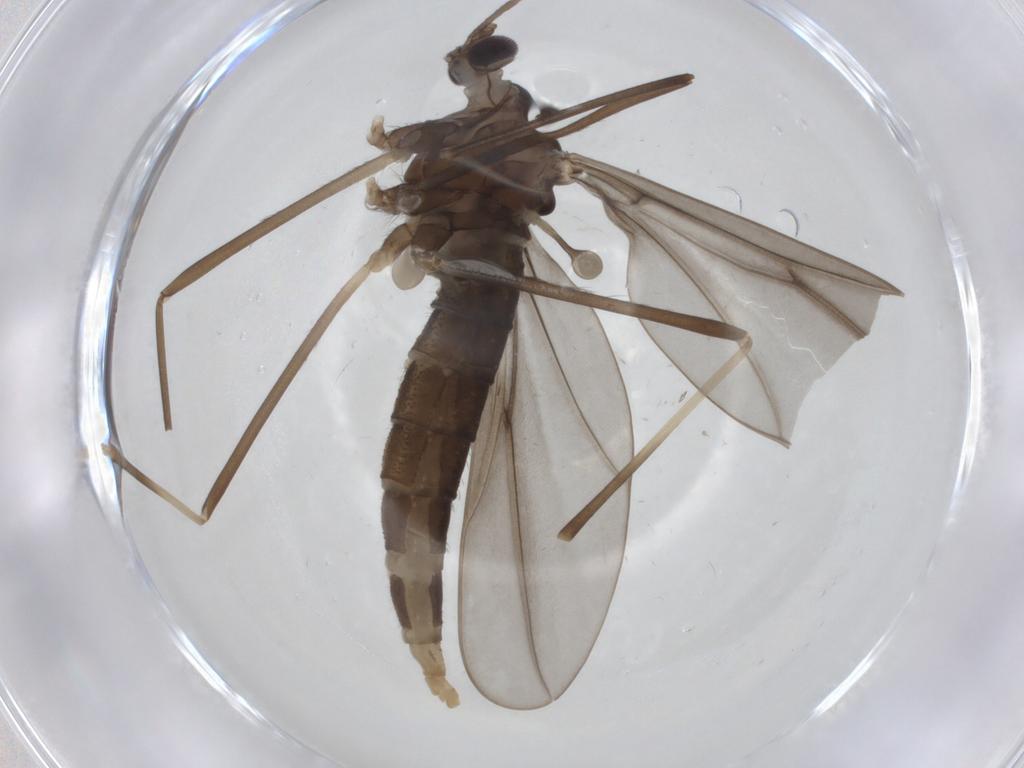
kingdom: Animalia
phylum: Arthropoda
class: Insecta
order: Diptera
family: Cecidomyiidae
